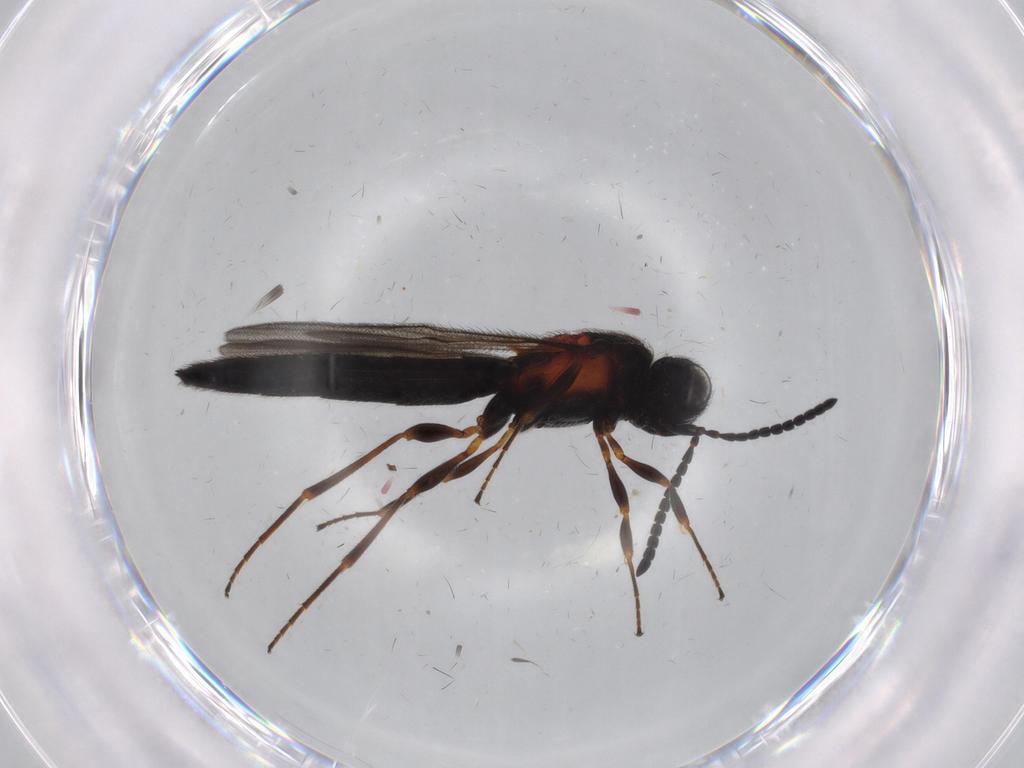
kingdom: Animalia
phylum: Arthropoda
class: Insecta
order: Hymenoptera
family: Scelionidae
